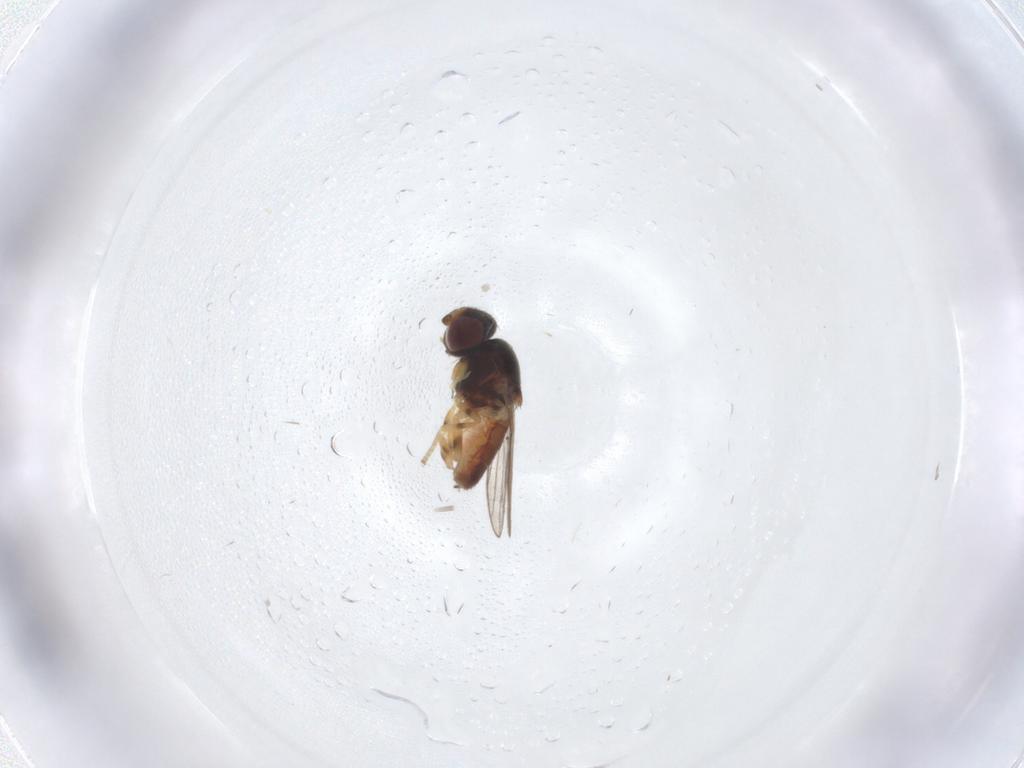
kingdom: Animalia
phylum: Arthropoda
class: Insecta
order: Diptera
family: Chloropidae
